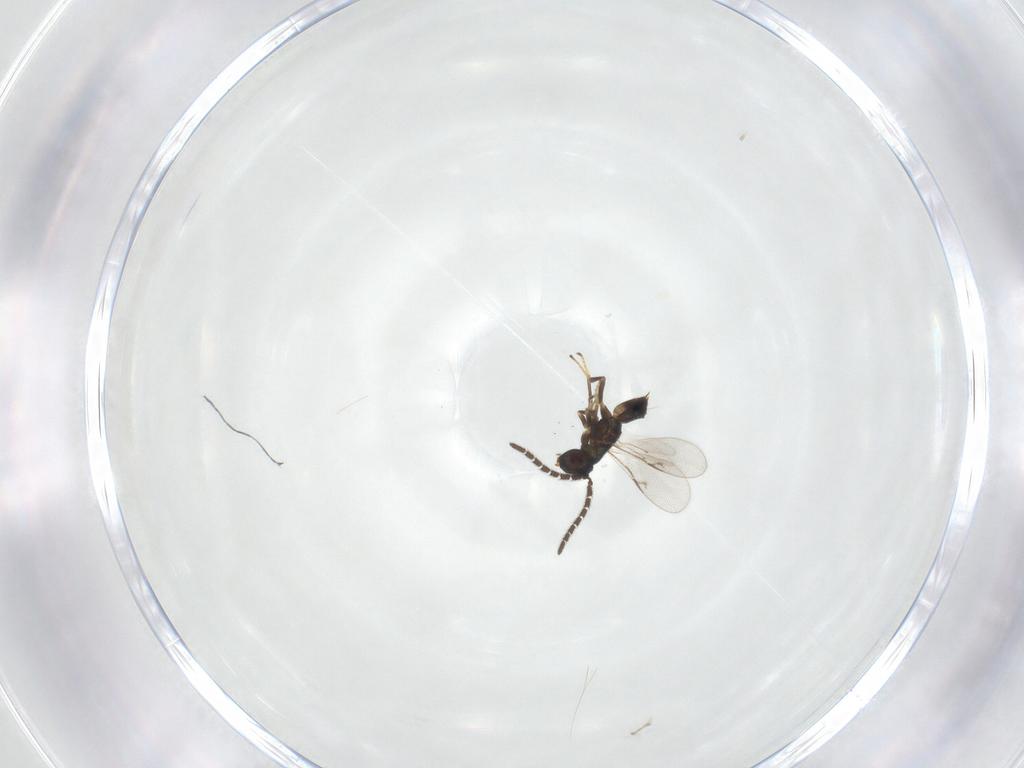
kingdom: Animalia
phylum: Arthropoda
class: Insecta
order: Hymenoptera
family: Encyrtidae
